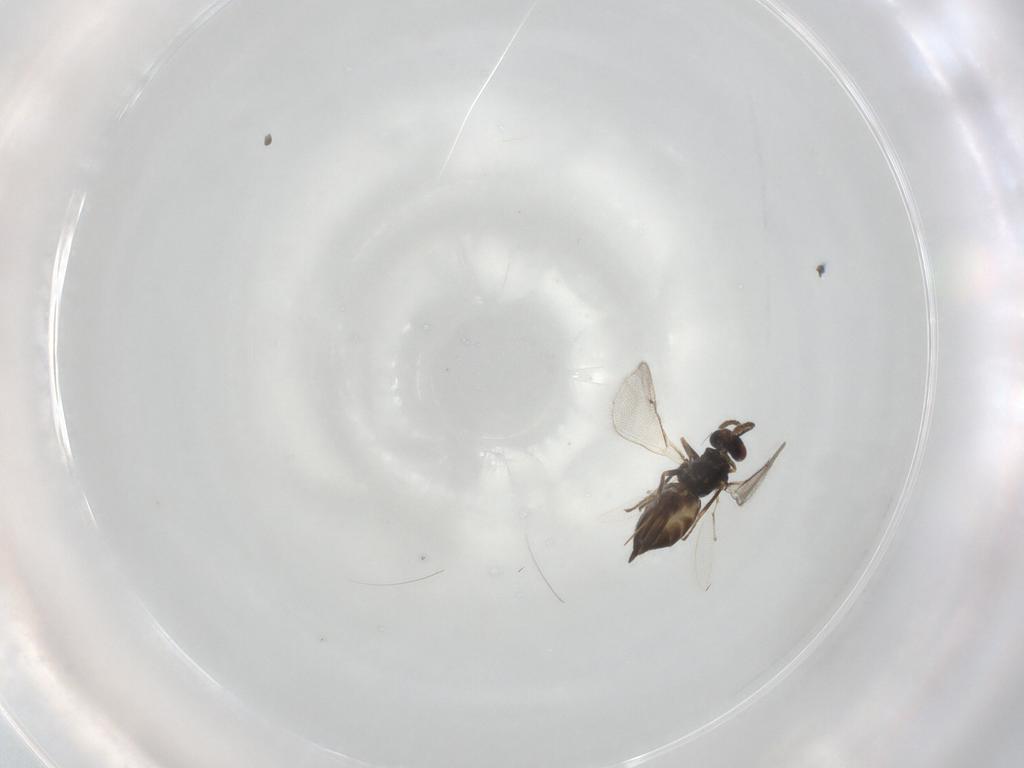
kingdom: Animalia
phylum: Arthropoda
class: Insecta
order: Hymenoptera
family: Eulophidae
